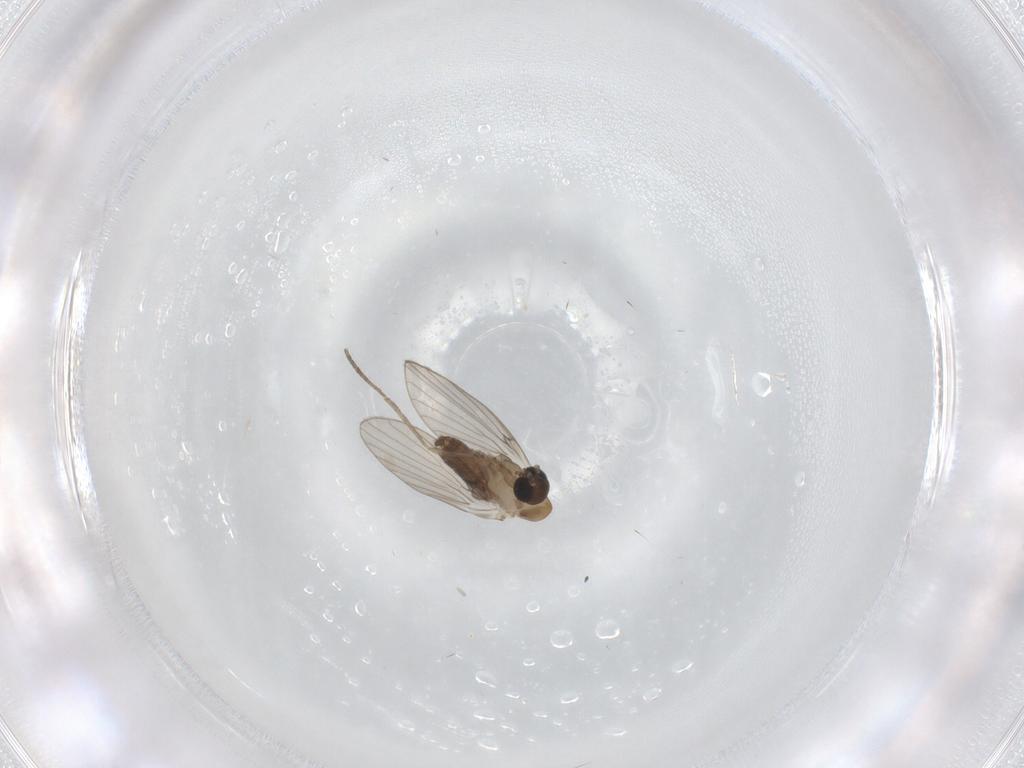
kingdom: Animalia
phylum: Arthropoda
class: Insecta
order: Diptera
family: Psychodidae
